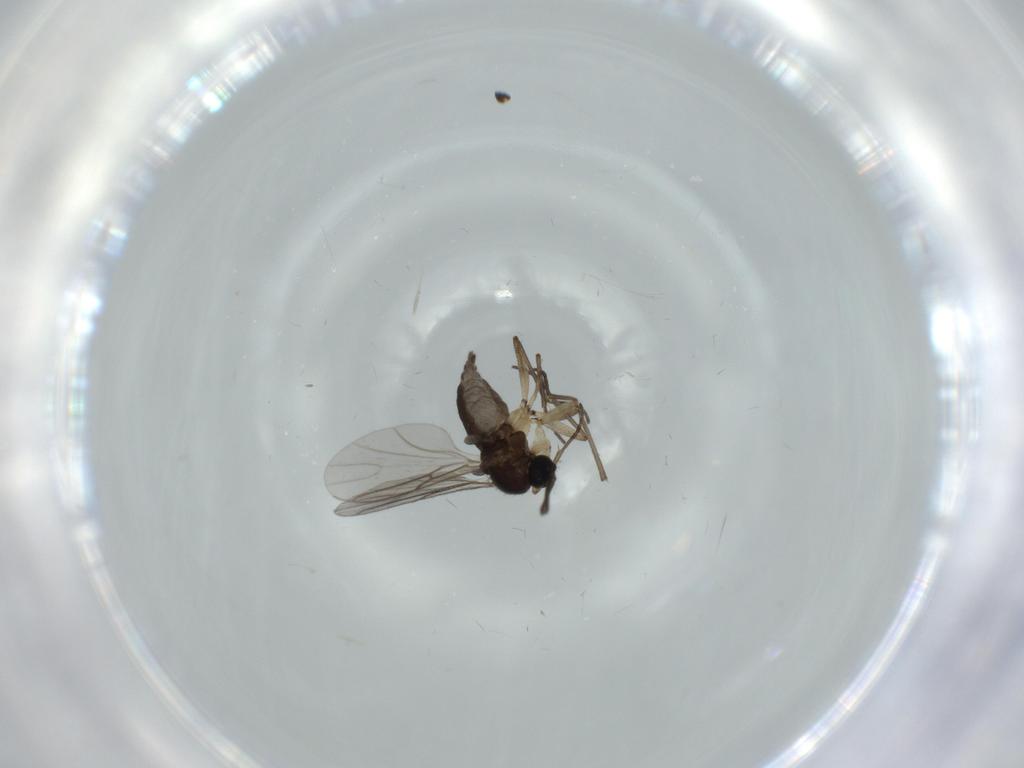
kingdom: Animalia
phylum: Arthropoda
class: Insecta
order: Diptera
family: Sciaridae
